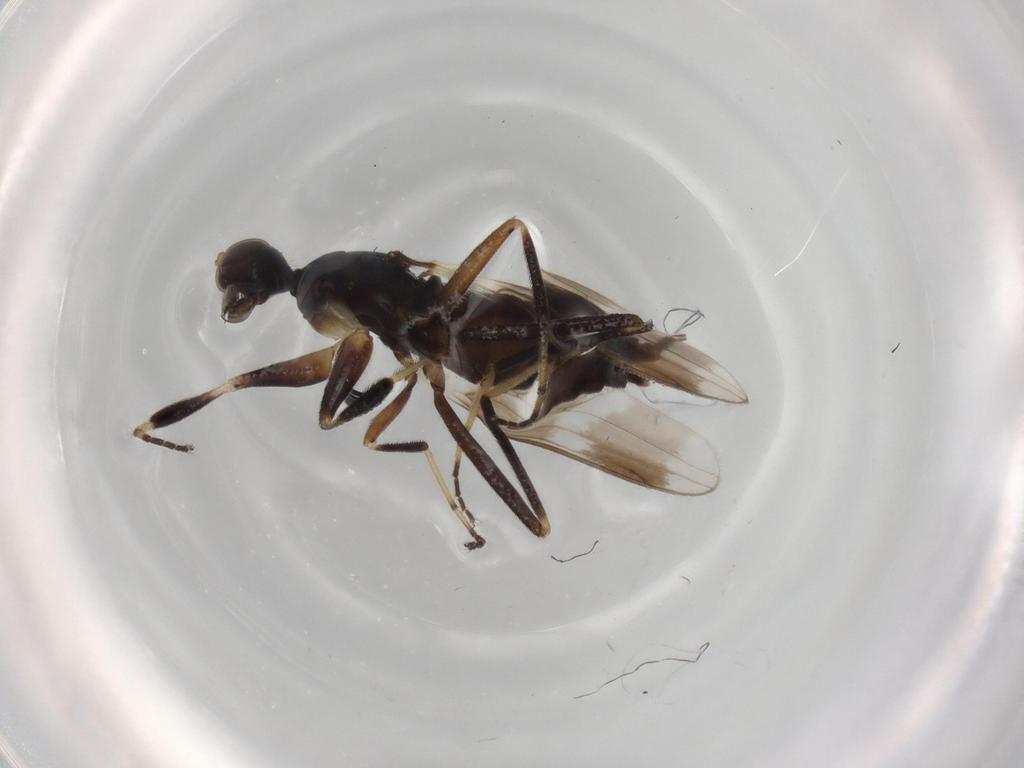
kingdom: Animalia
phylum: Arthropoda
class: Insecta
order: Diptera
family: Hybotidae
